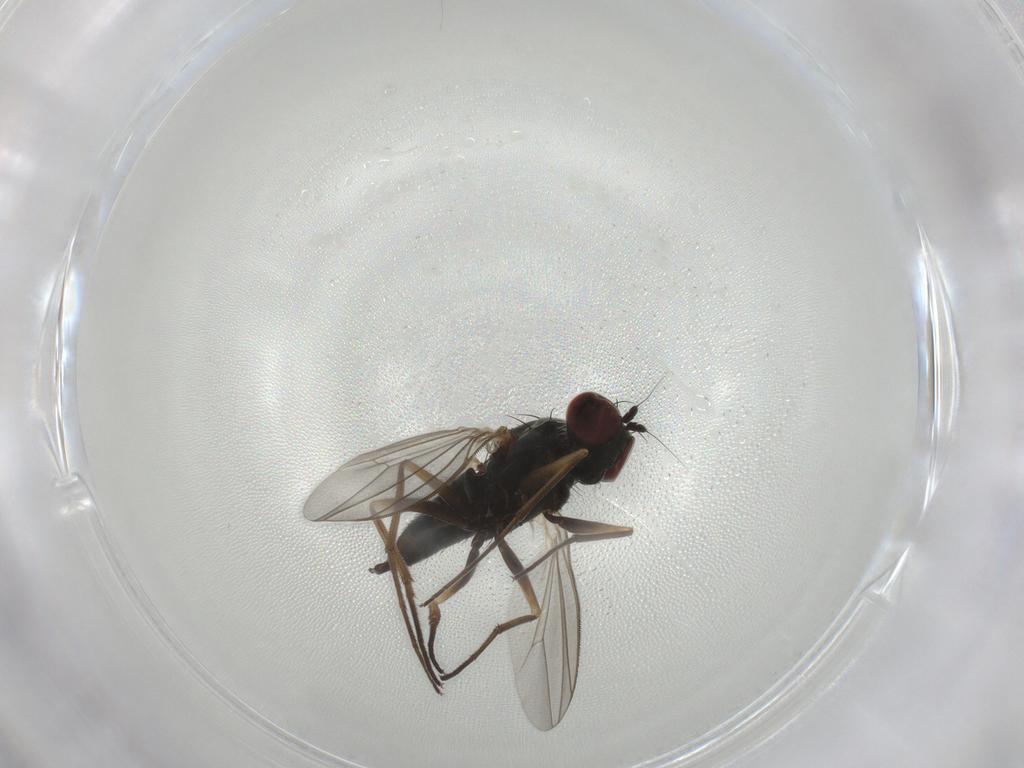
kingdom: Animalia
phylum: Arthropoda
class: Insecta
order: Diptera
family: Dolichopodidae
